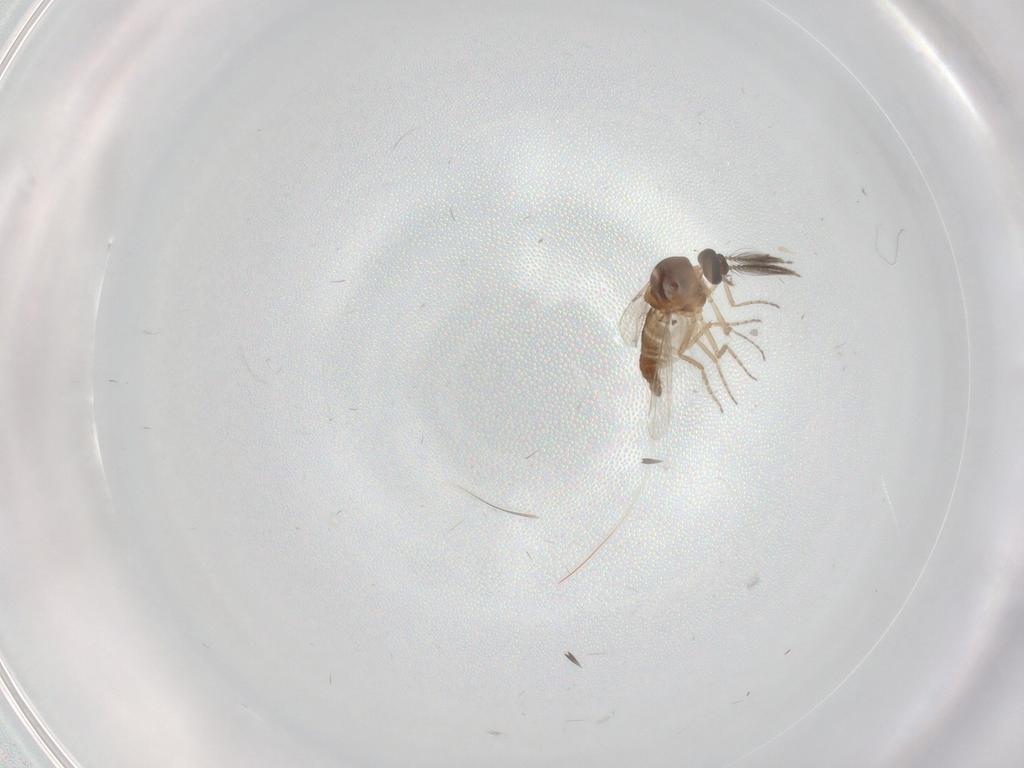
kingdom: Animalia
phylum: Arthropoda
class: Insecta
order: Diptera
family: Ceratopogonidae
